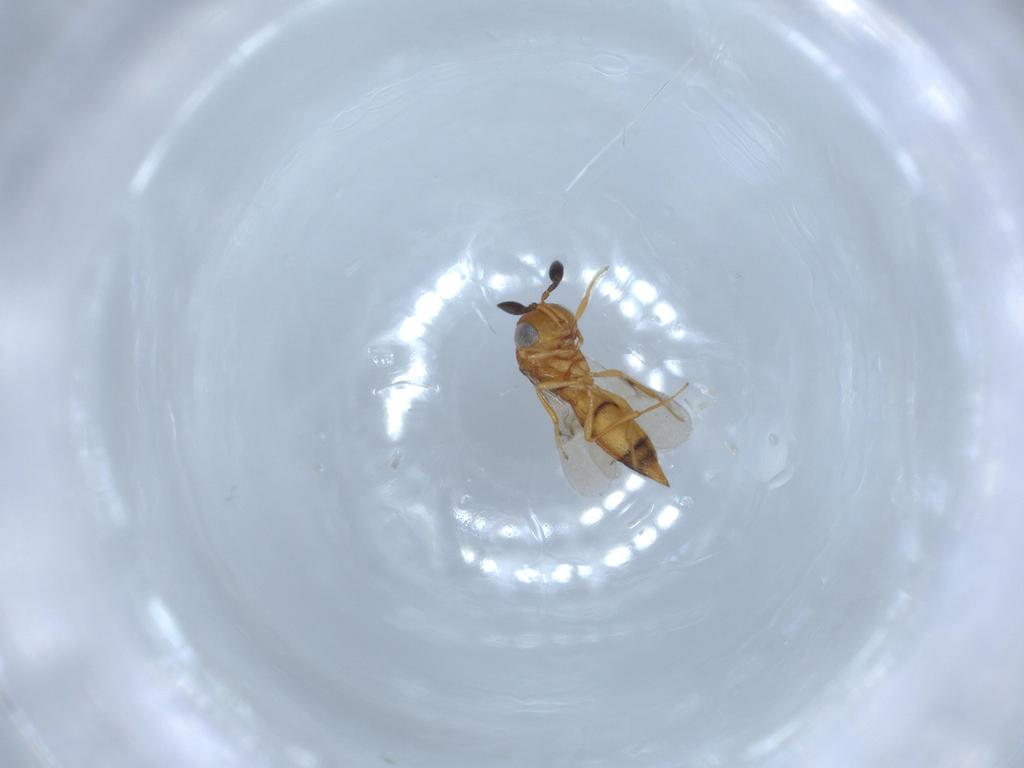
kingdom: Animalia
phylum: Arthropoda
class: Insecta
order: Hymenoptera
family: Scelionidae
